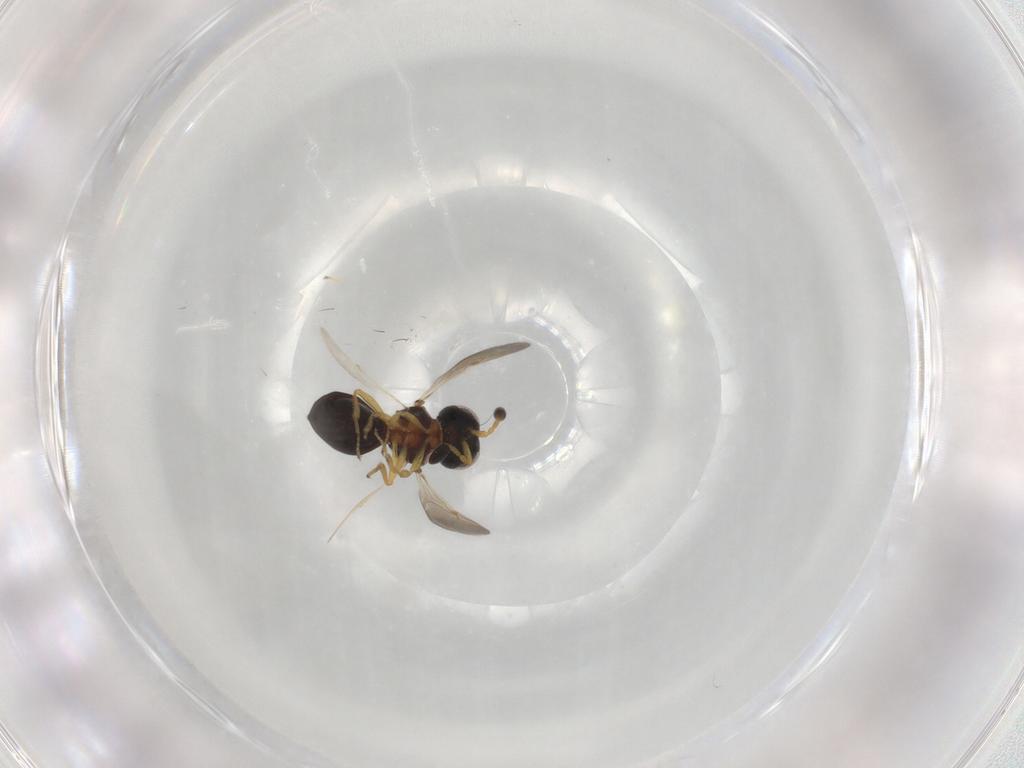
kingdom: Animalia
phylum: Arthropoda
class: Insecta
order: Hymenoptera
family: Scelionidae
